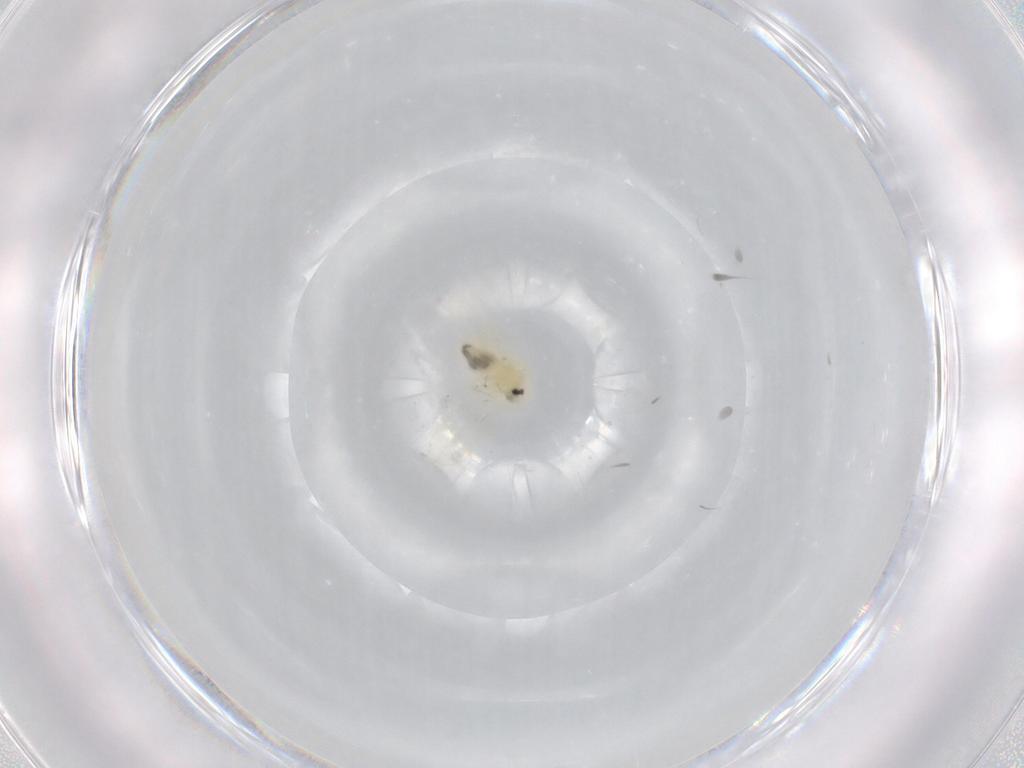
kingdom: Animalia
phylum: Arthropoda
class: Insecta
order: Hemiptera
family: Aleyrodidae
